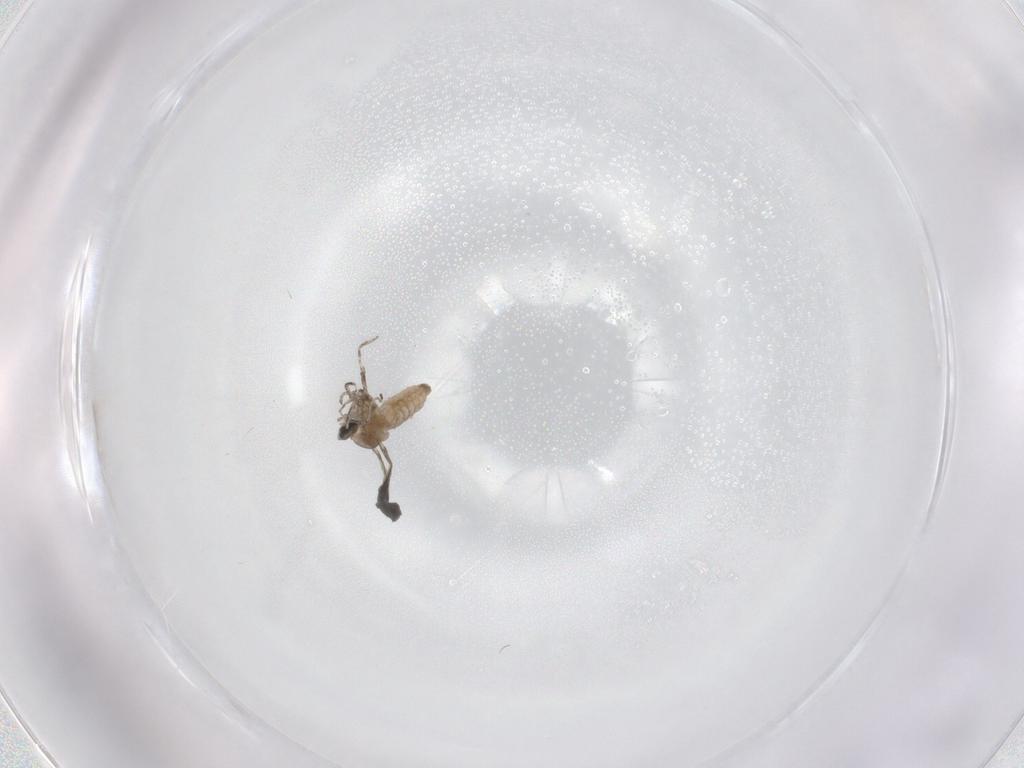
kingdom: Animalia
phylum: Arthropoda
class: Insecta
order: Diptera
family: Cecidomyiidae
